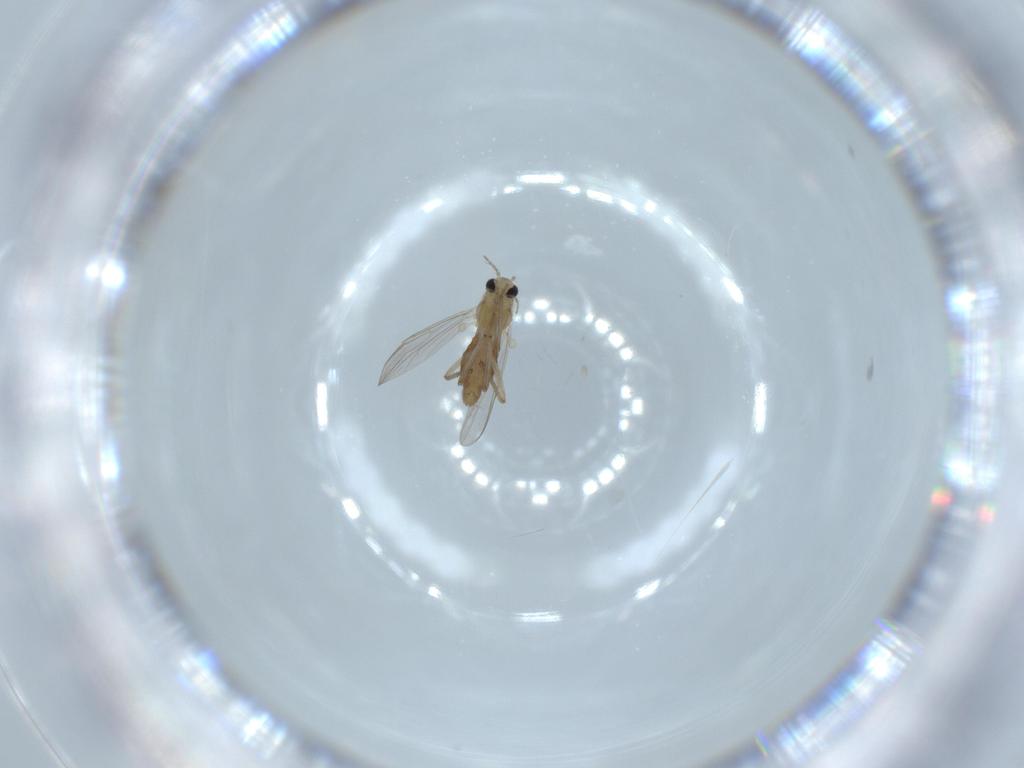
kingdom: Animalia
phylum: Arthropoda
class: Insecta
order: Diptera
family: Chironomidae
